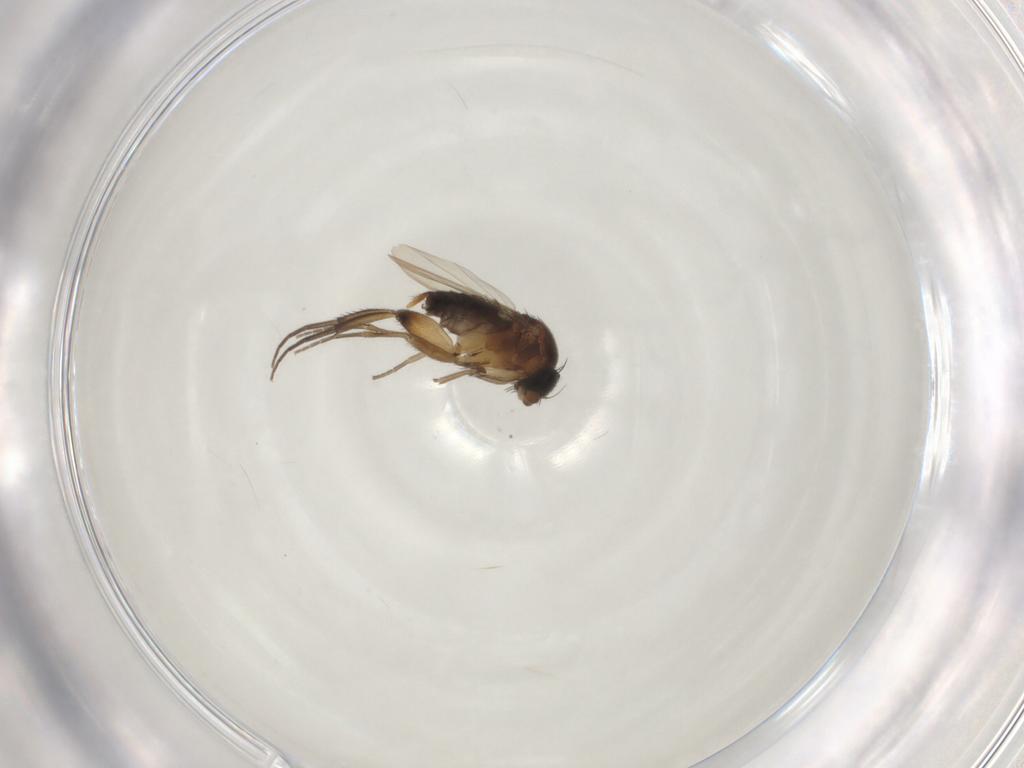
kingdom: Animalia
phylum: Arthropoda
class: Insecta
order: Diptera
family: Phoridae
